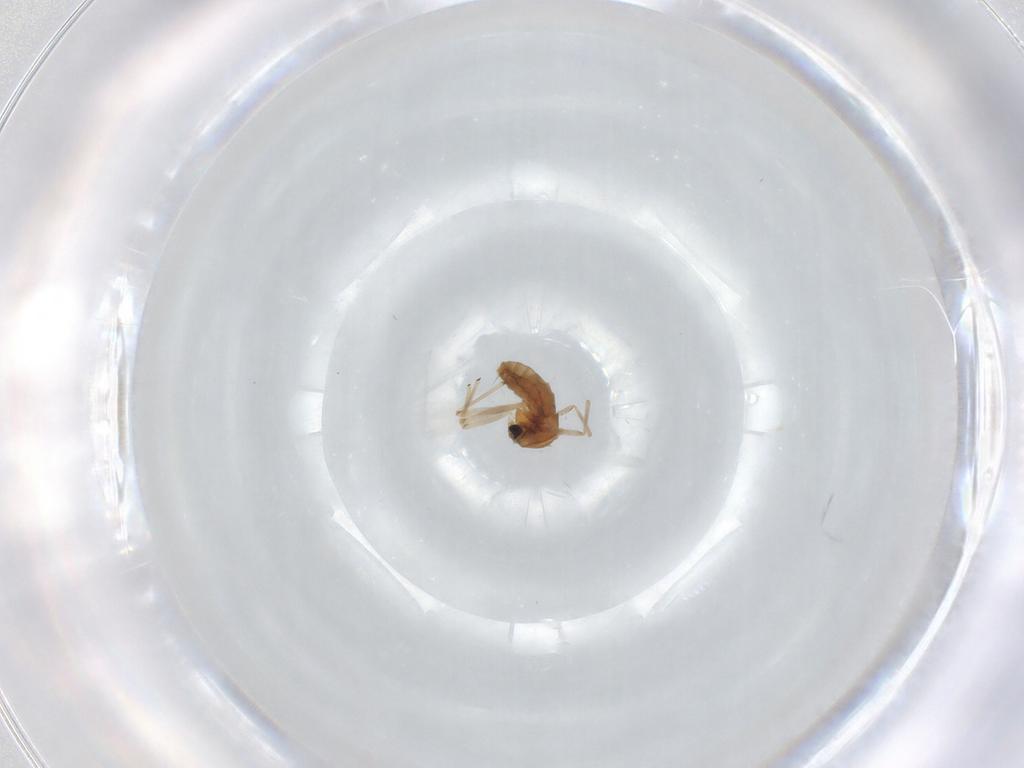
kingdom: Animalia
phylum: Arthropoda
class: Insecta
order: Diptera
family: Chironomidae
